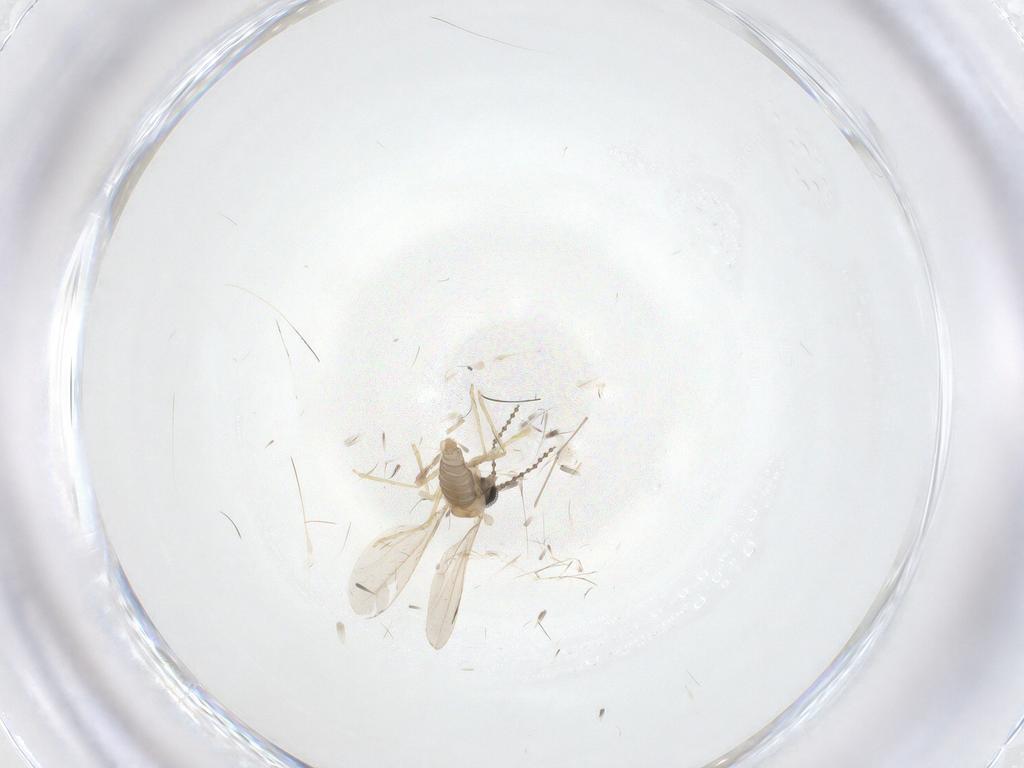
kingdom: Animalia
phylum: Arthropoda
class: Insecta
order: Diptera
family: Cecidomyiidae
